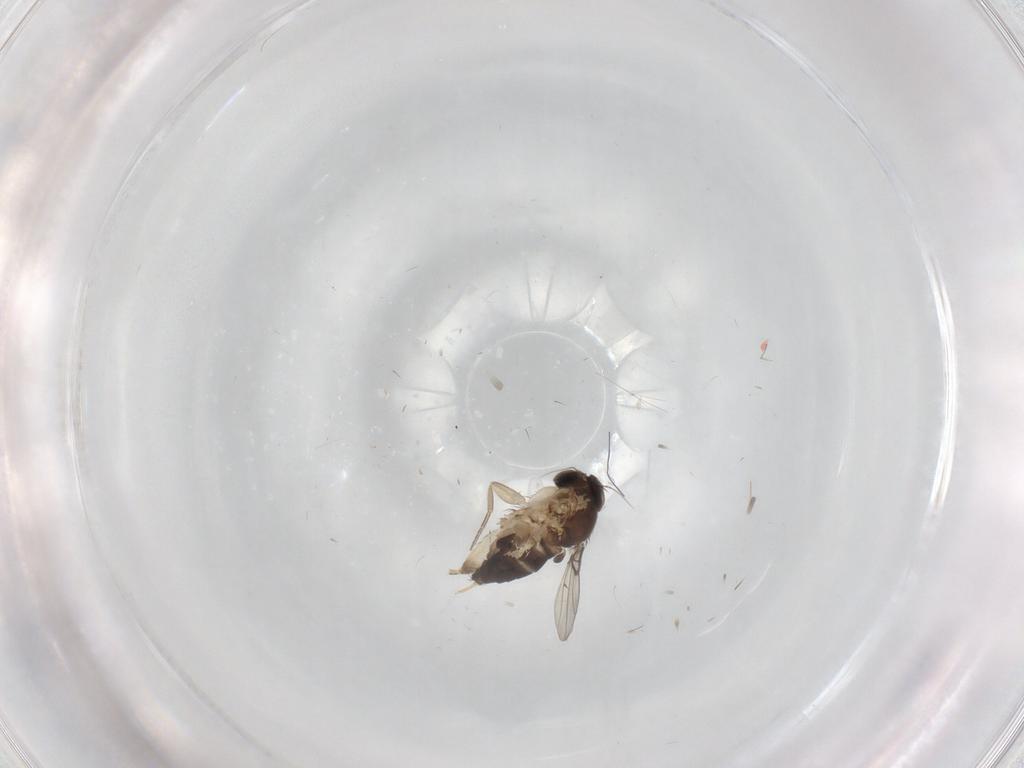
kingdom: Animalia
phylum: Arthropoda
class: Insecta
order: Diptera
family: Phoridae
